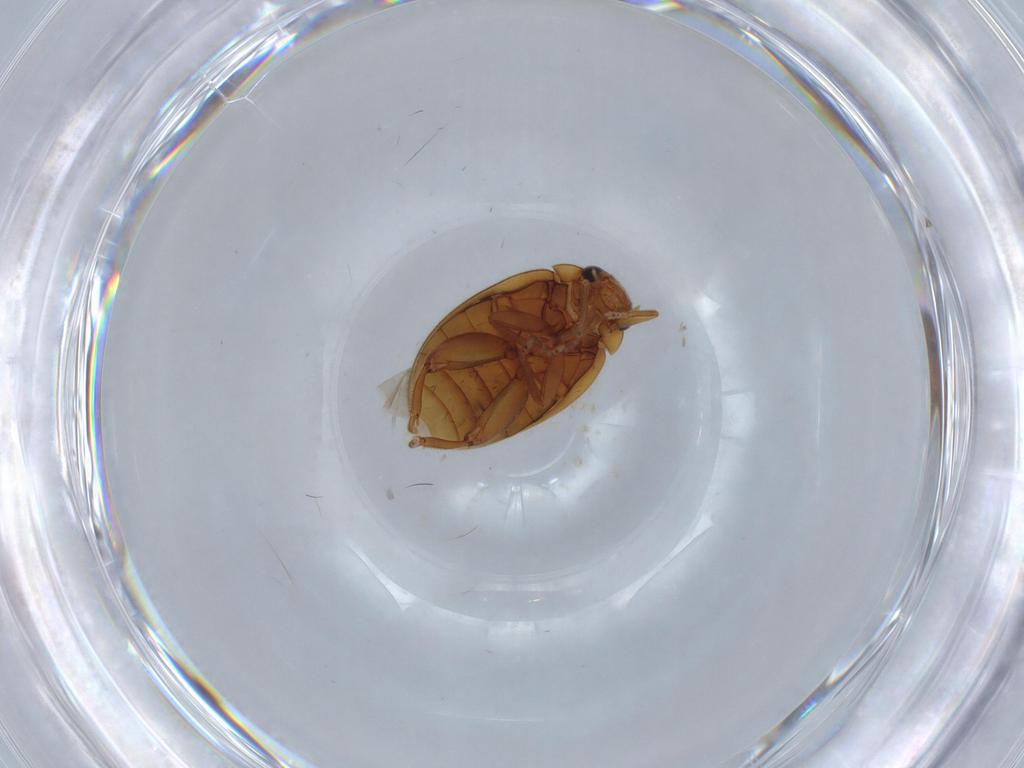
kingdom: Animalia
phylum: Arthropoda
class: Insecta
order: Coleoptera
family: Scirtidae
